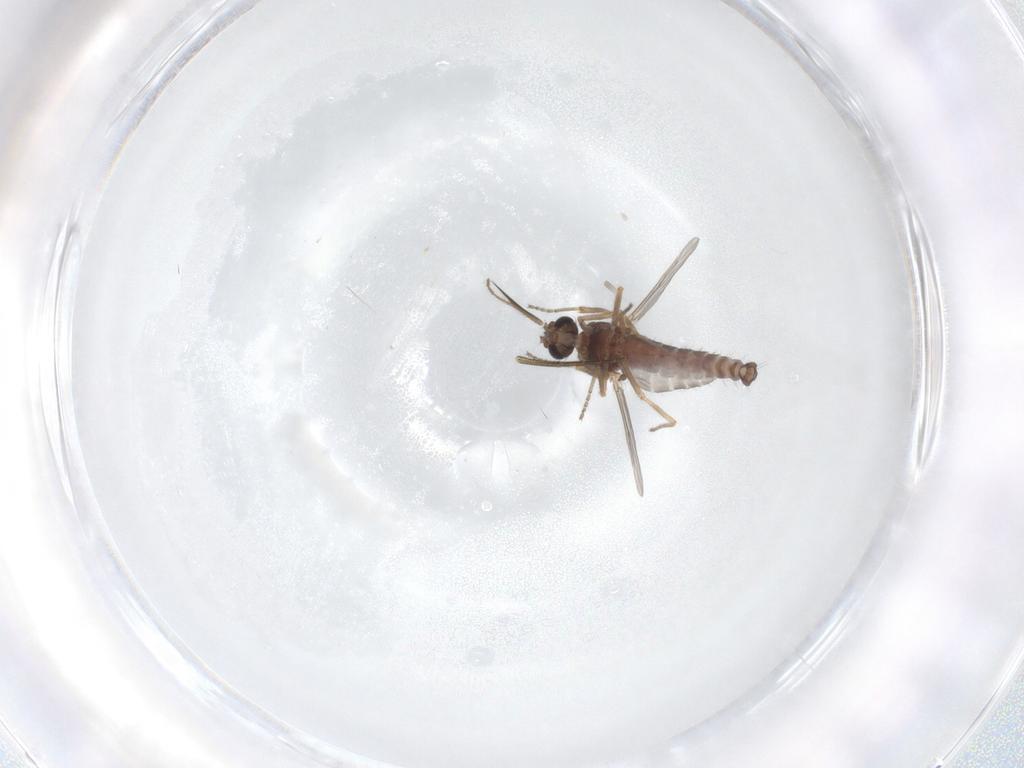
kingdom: Animalia
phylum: Arthropoda
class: Insecta
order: Diptera
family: Ceratopogonidae
